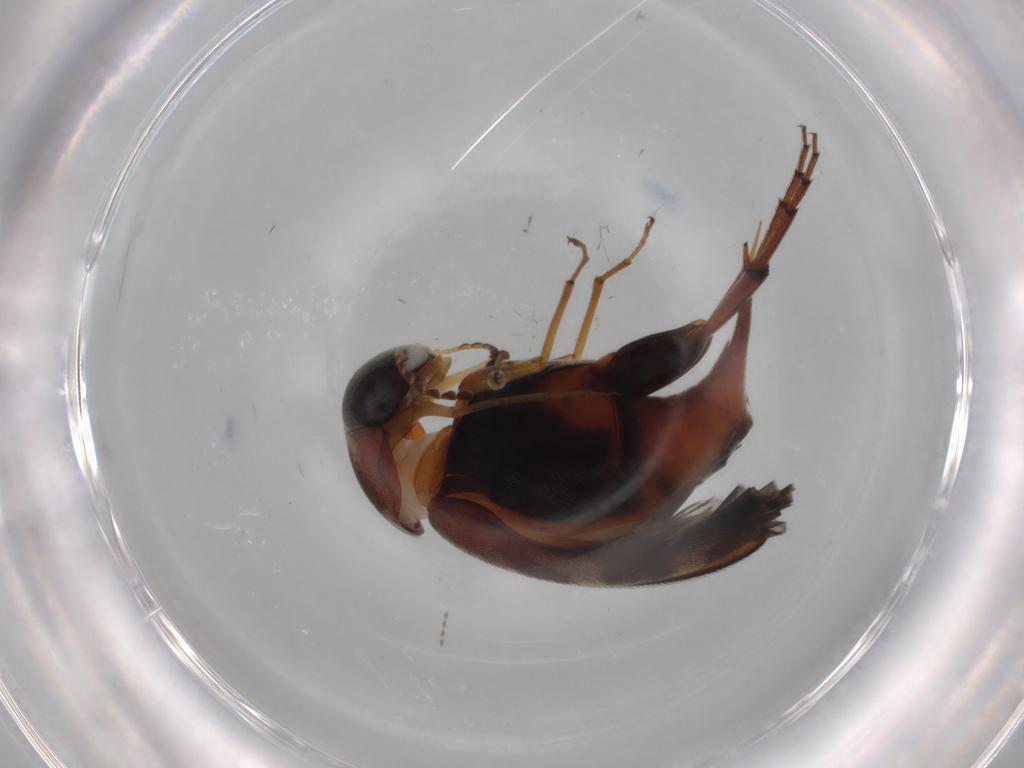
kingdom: Animalia
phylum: Arthropoda
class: Insecta
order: Coleoptera
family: Mordellidae
